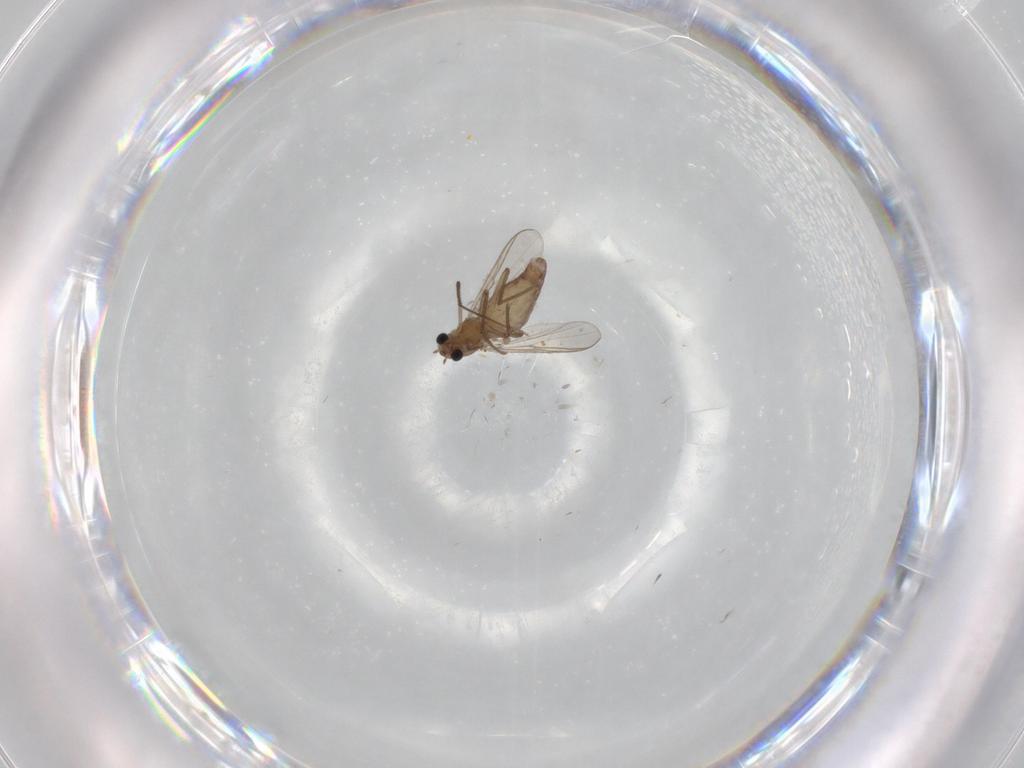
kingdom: Animalia
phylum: Arthropoda
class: Insecta
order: Diptera
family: Chironomidae
